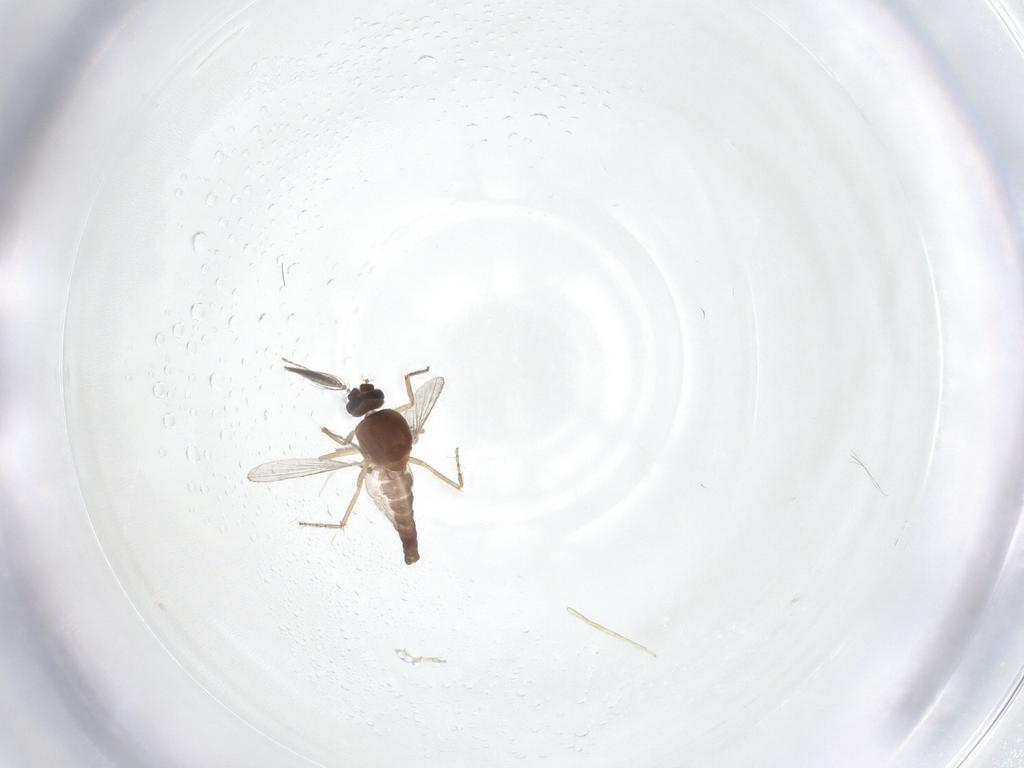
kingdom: Animalia
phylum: Arthropoda
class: Insecta
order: Diptera
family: Ceratopogonidae
